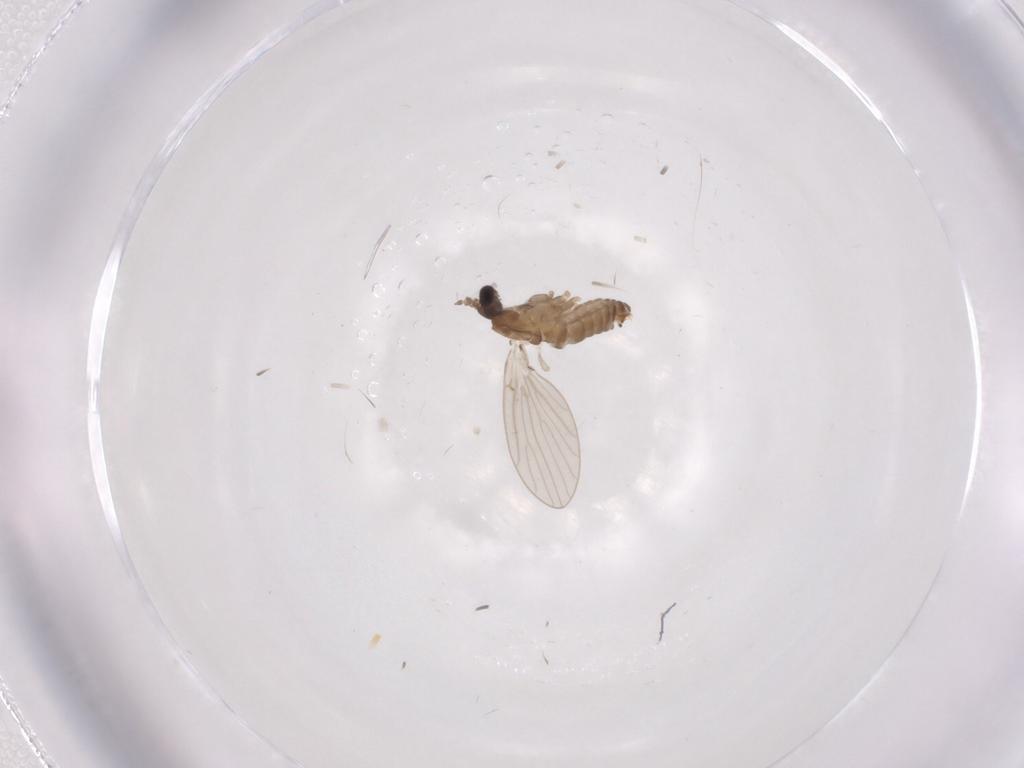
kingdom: Animalia
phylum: Arthropoda
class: Insecta
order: Diptera
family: Psychodidae
